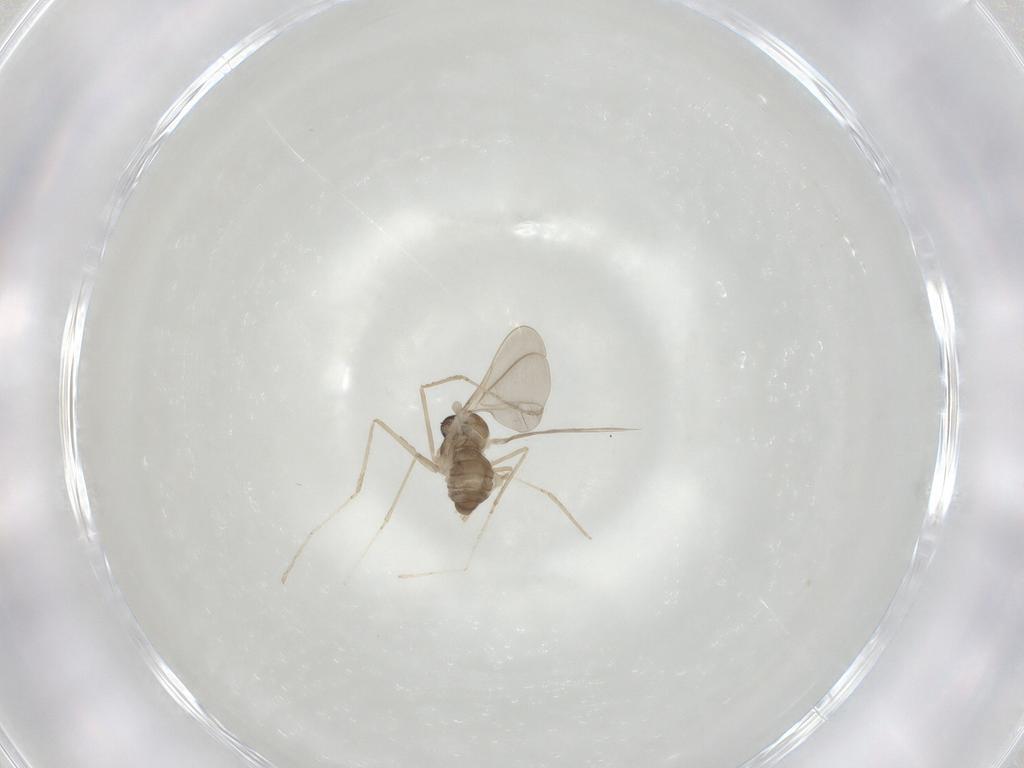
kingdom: Animalia
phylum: Arthropoda
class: Insecta
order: Diptera
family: Cecidomyiidae
